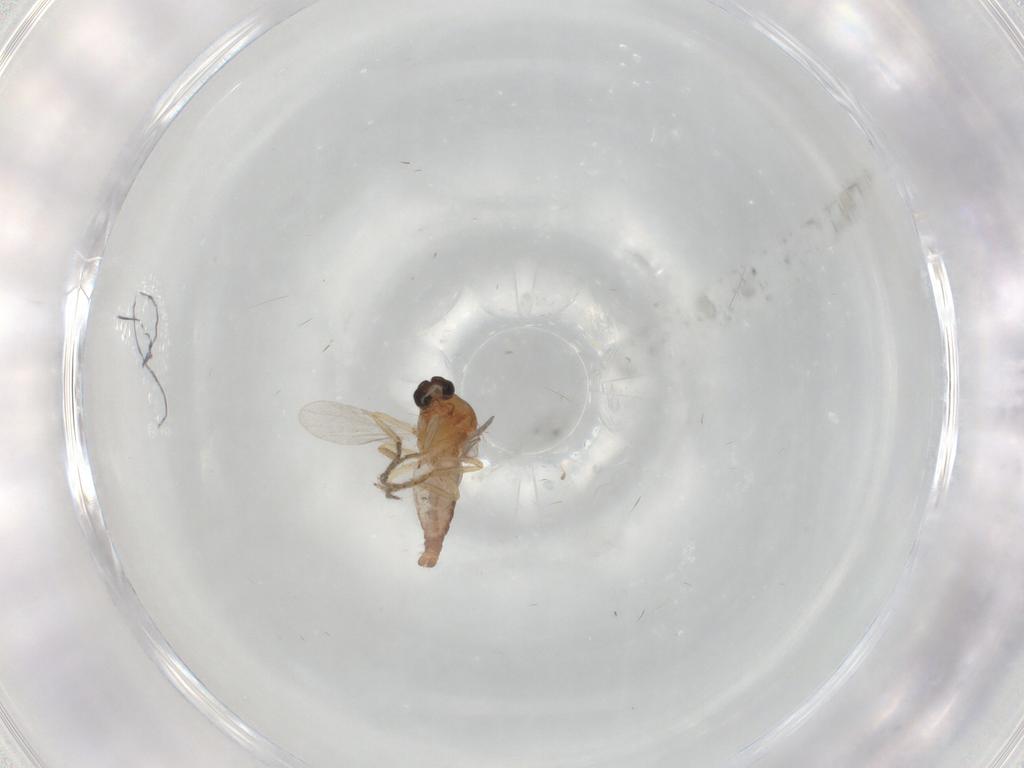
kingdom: Animalia
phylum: Arthropoda
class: Insecta
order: Diptera
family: Ceratopogonidae
